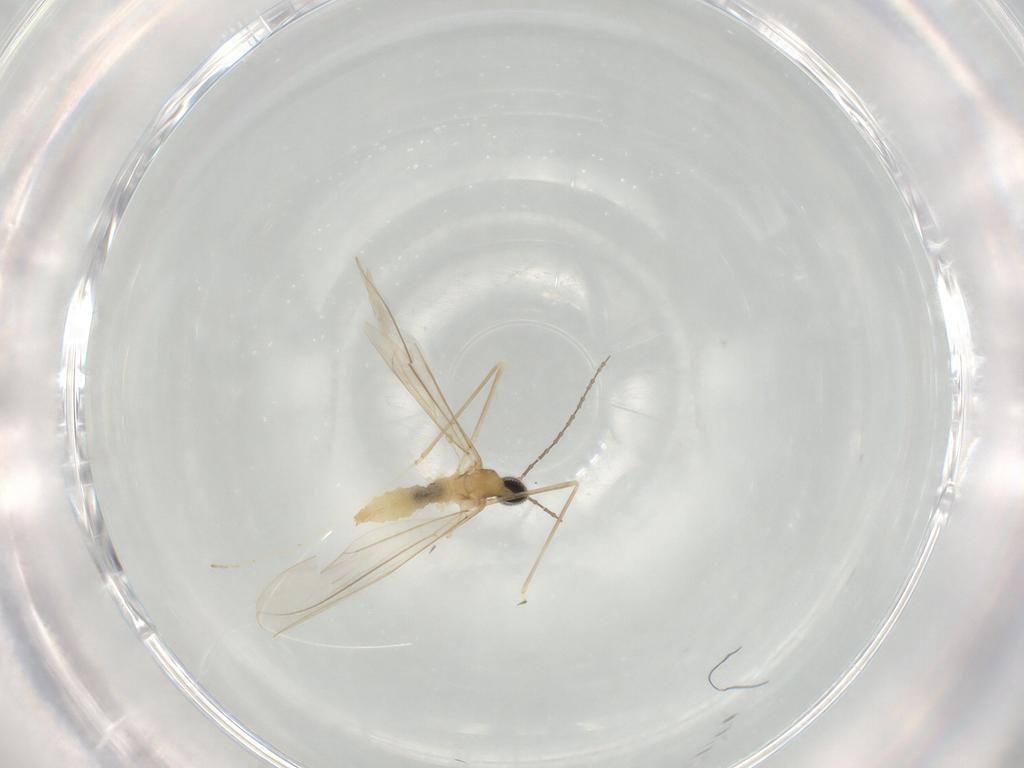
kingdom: Animalia
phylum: Arthropoda
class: Insecta
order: Diptera
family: Cecidomyiidae
